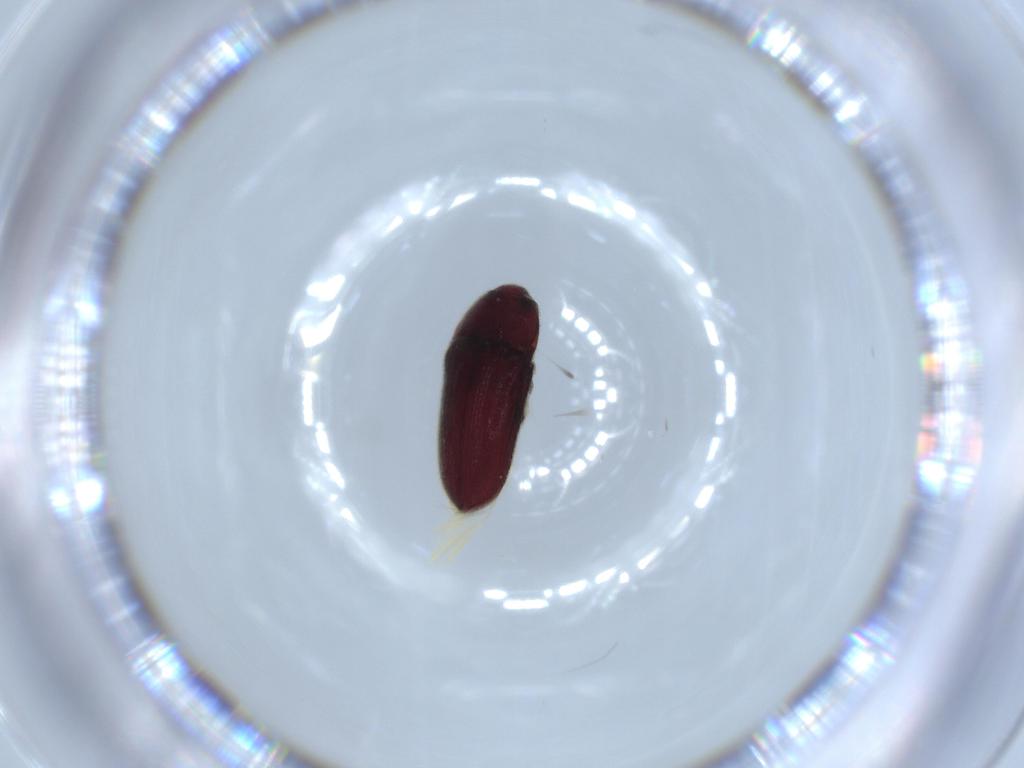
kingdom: Animalia
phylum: Arthropoda
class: Insecta
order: Coleoptera
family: Throscidae
